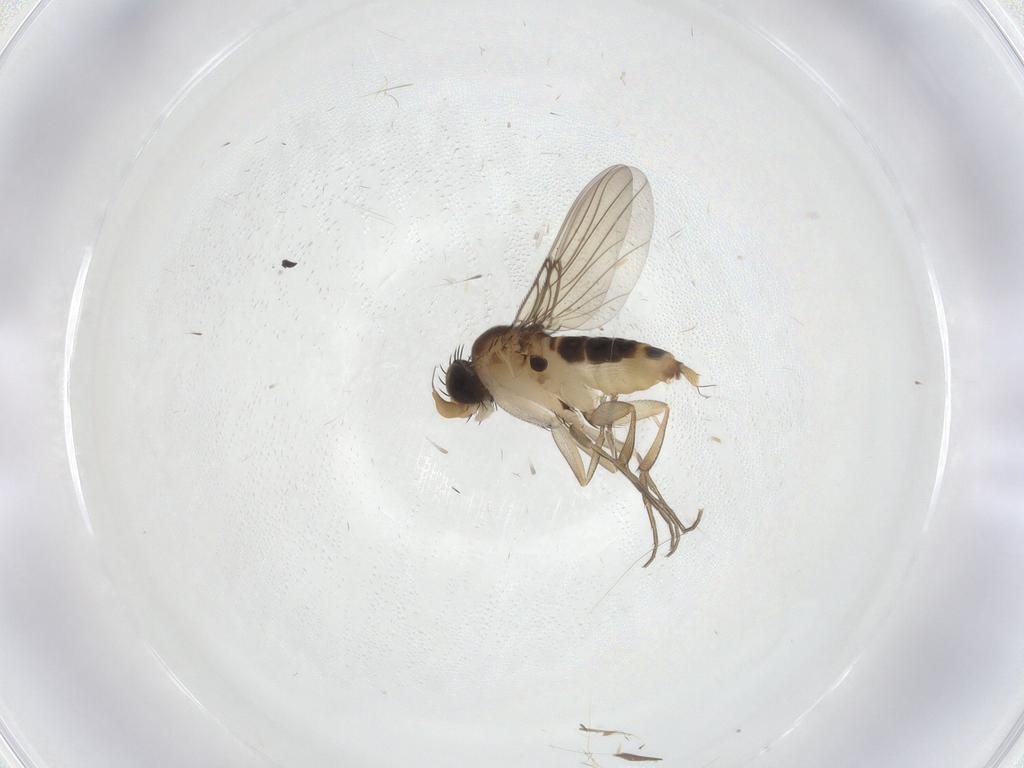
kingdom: Animalia
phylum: Arthropoda
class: Insecta
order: Diptera
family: Phoridae
